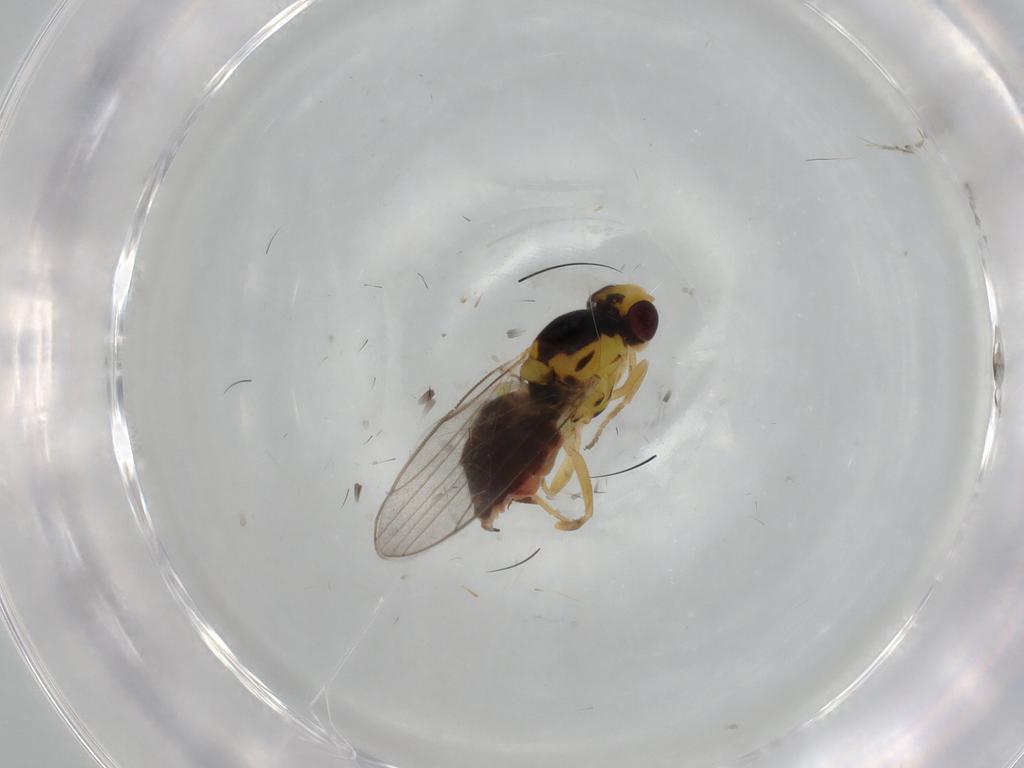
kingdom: Animalia
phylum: Arthropoda
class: Insecta
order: Diptera
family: Chloropidae
